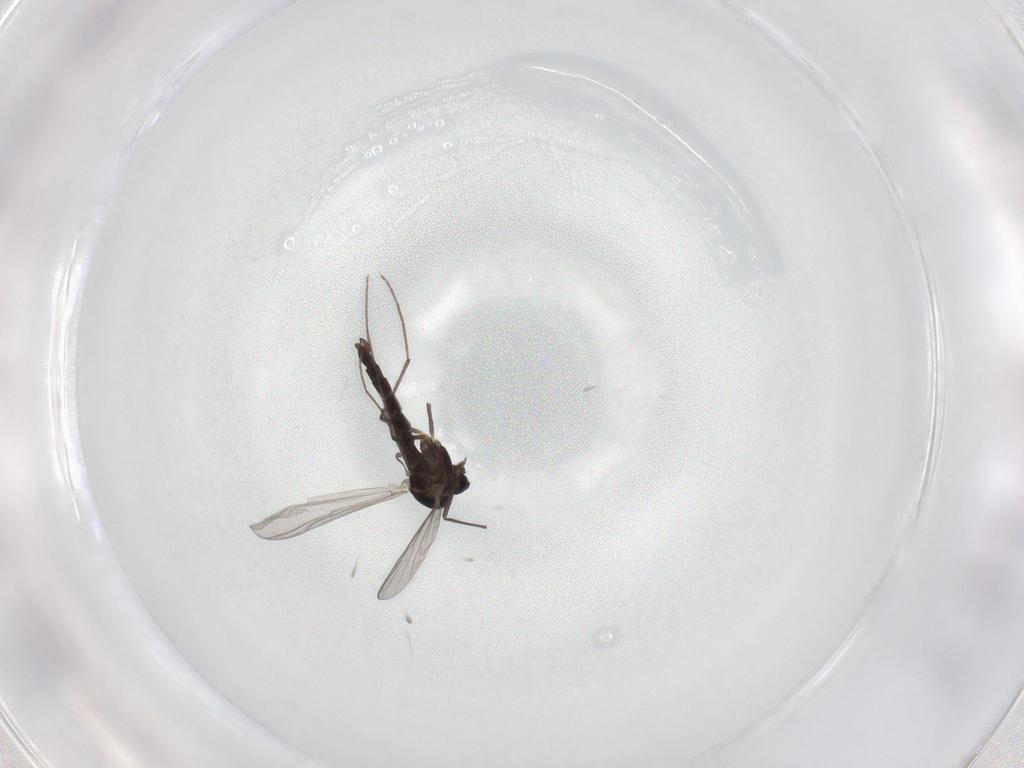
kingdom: Animalia
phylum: Arthropoda
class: Insecta
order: Diptera
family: Chironomidae
